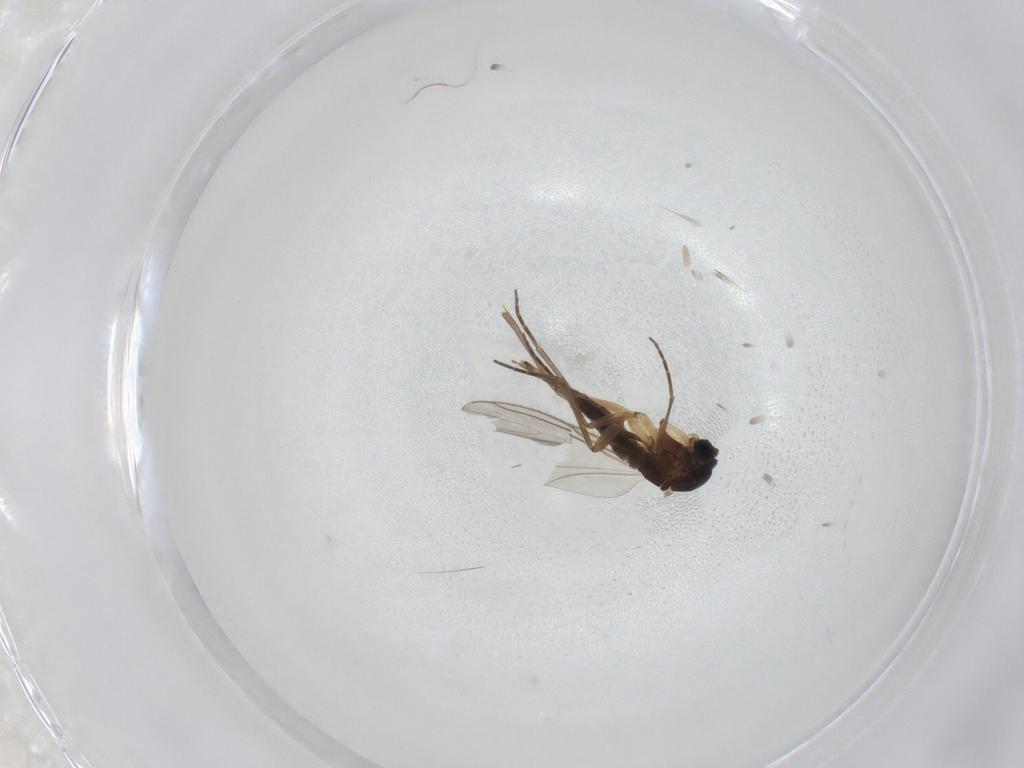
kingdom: Animalia
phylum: Arthropoda
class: Insecta
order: Diptera
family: Sciaridae
